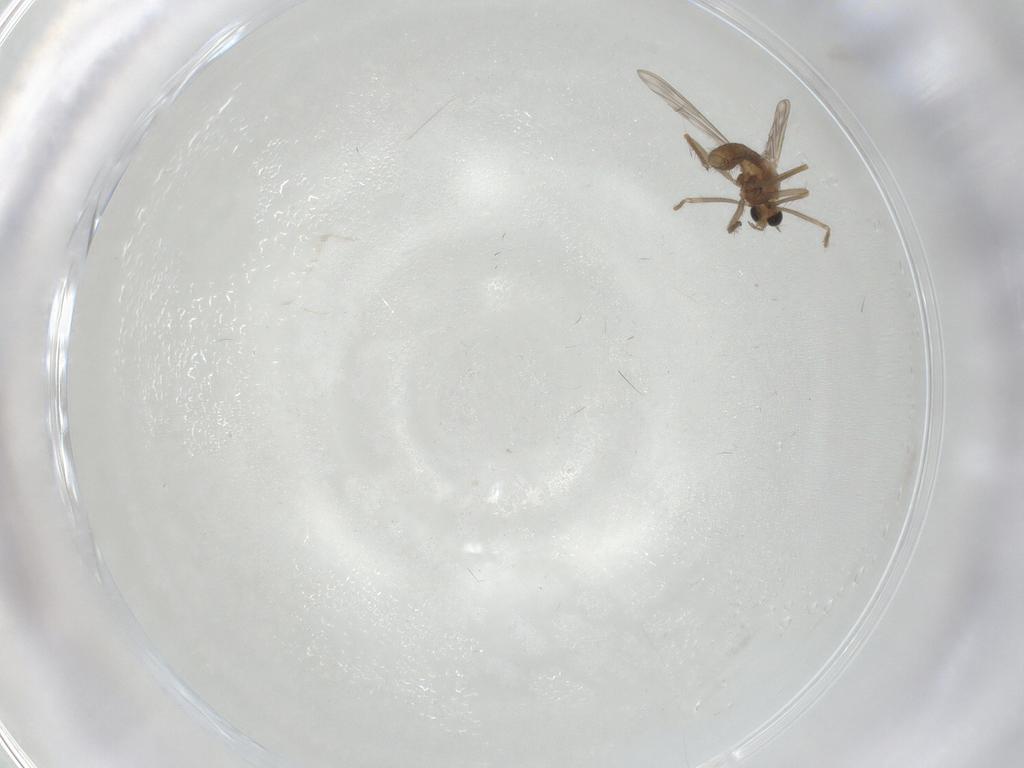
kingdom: Animalia
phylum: Arthropoda
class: Insecta
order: Diptera
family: Chironomidae
